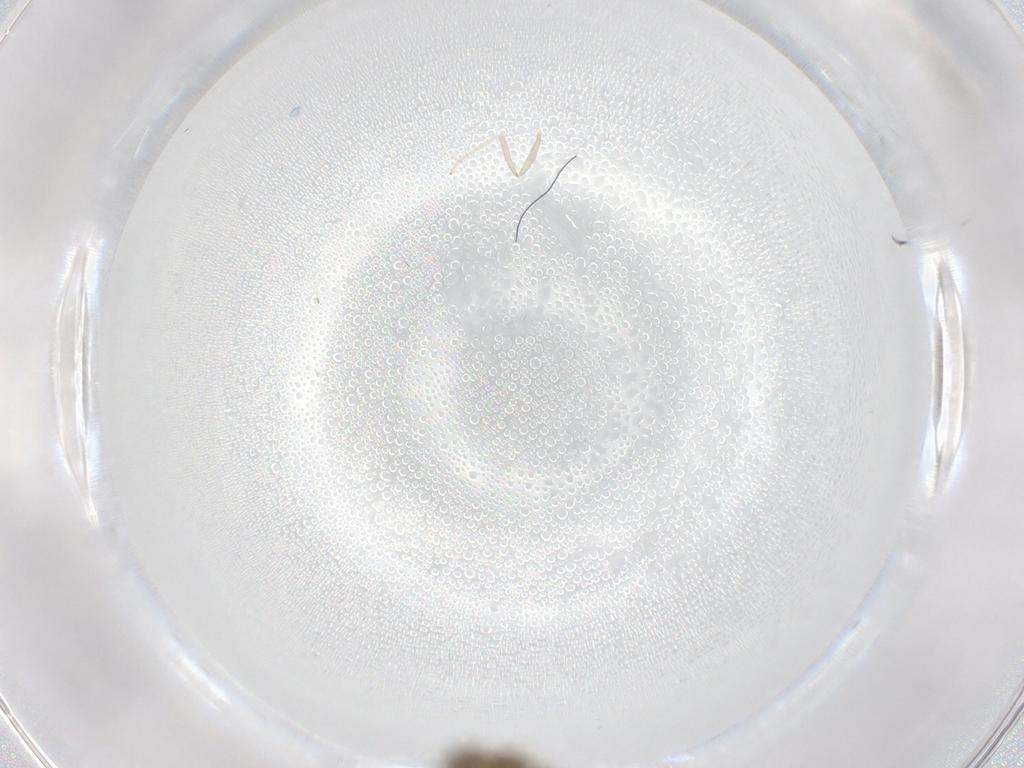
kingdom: Animalia
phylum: Arthropoda
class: Insecta
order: Diptera
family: Cecidomyiidae
